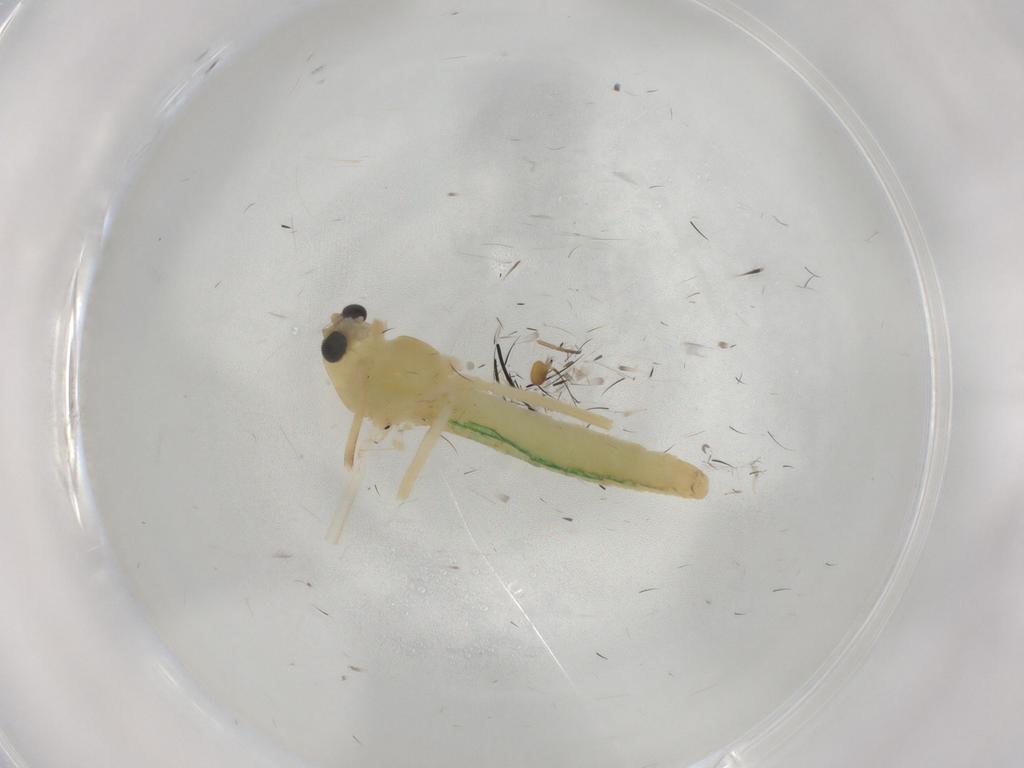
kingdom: Animalia
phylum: Arthropoda
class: Insecta
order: Diptera
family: Chironomidae
